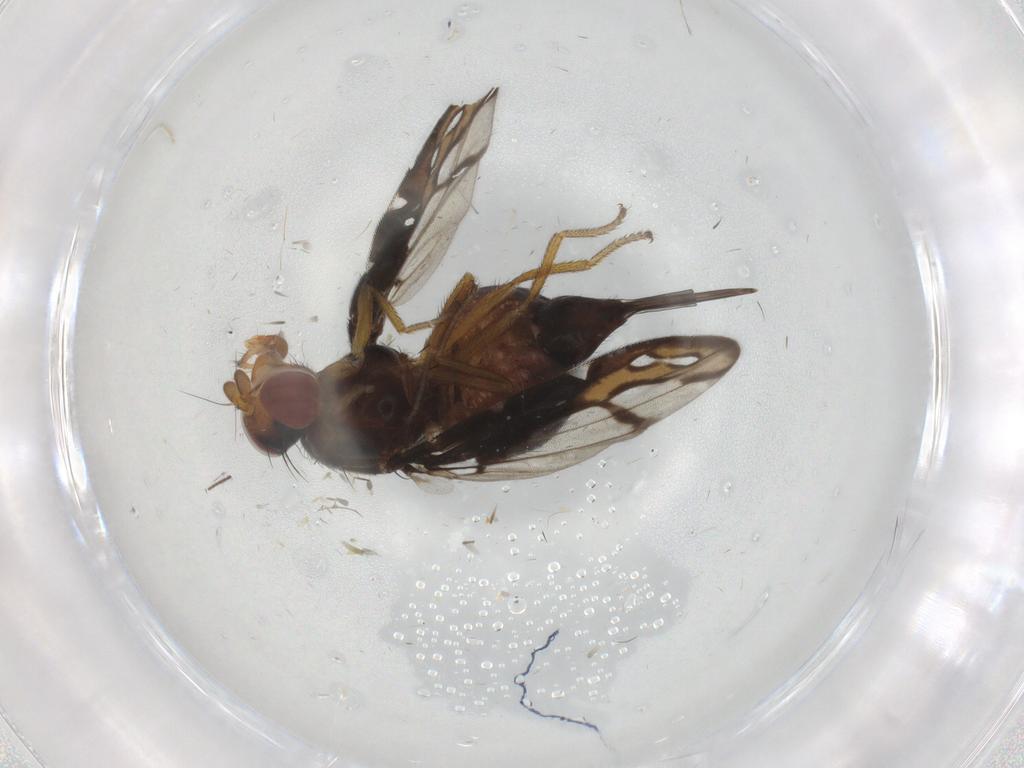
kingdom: Animalia
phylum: Arthropoda
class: Insecta
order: Diptera
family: Ulidiidae
